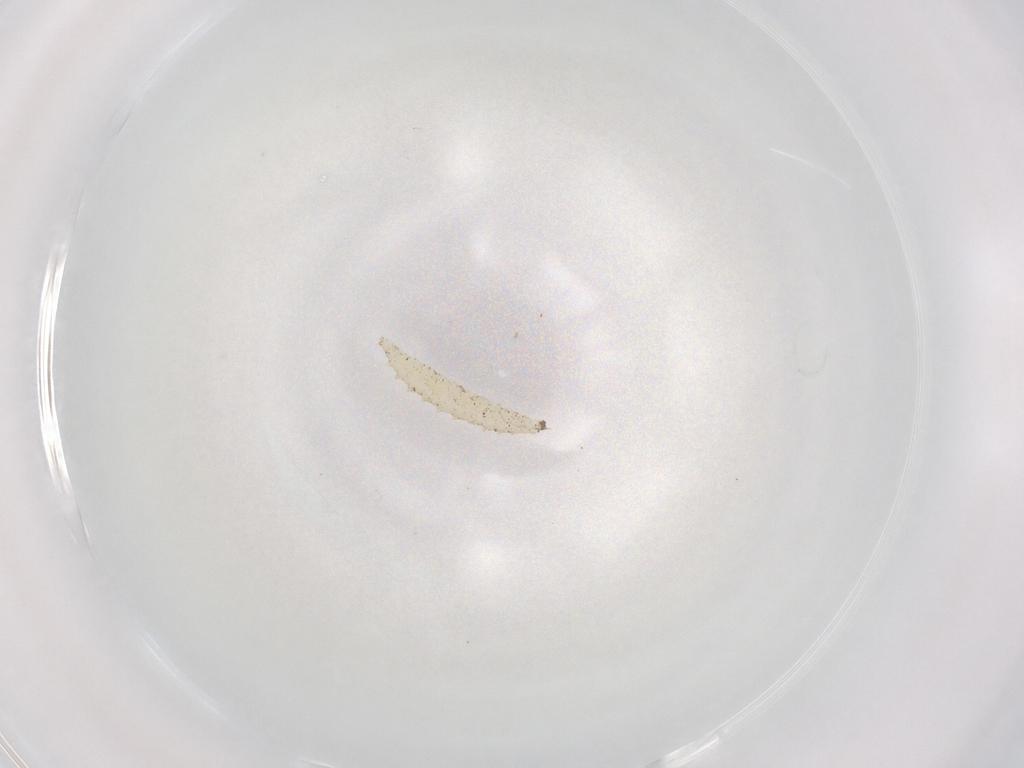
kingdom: Animalia
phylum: Arthropoda
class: Insecta
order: Diptera
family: Cecidomyiidae
